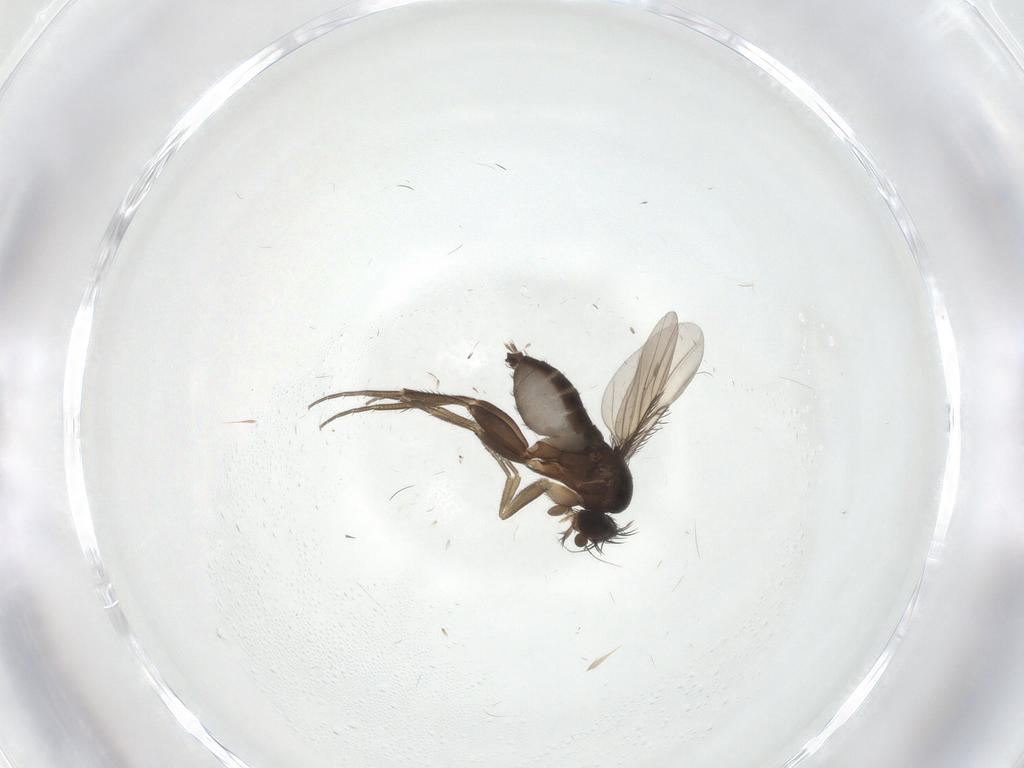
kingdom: Animalia
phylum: Arthropoda
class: Insecta
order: Diptera
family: Phoridae
